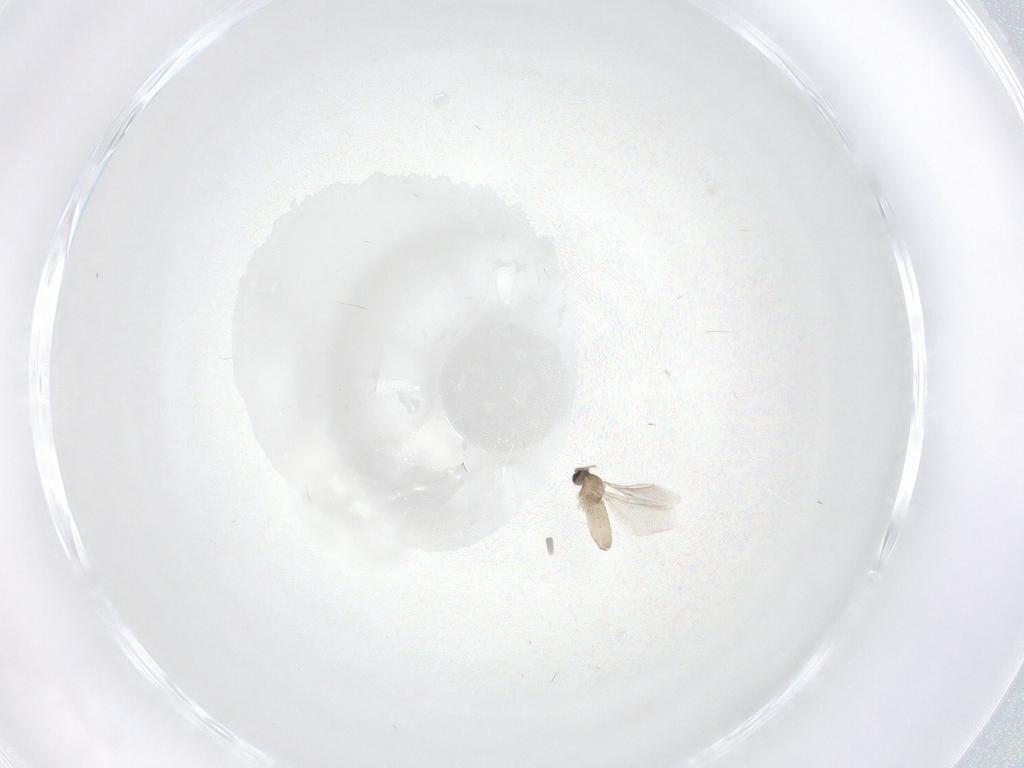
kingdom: Animalia
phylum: Arthropoda
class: Insecta
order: Diptera
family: Cecidomyiidae
